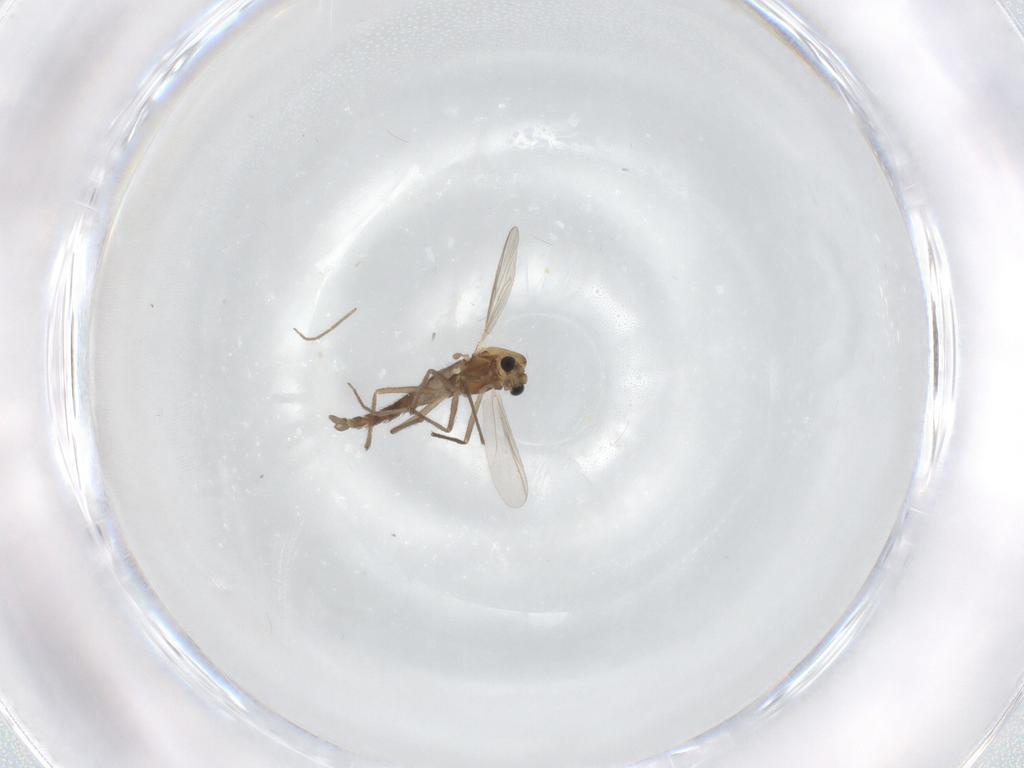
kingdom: Animalia
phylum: Arthropoda
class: Insecta
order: Diptera
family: Chironomidae
